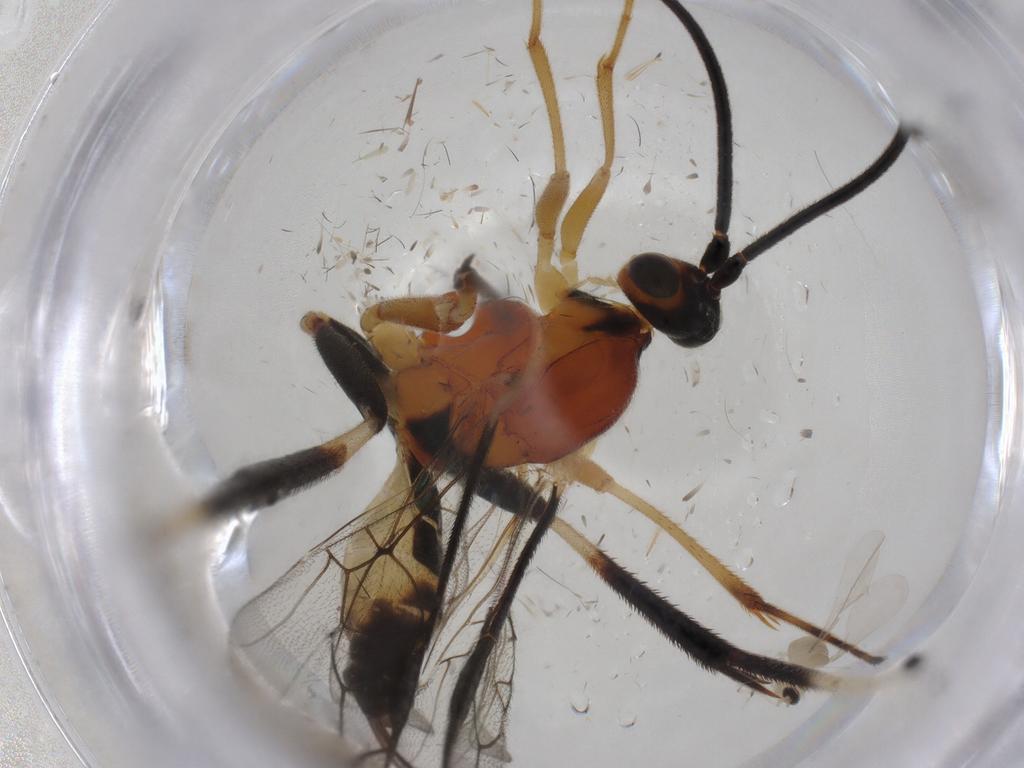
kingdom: Animalia
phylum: Arthropoda
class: Insecta
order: Hymenoptera
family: Braconidae
